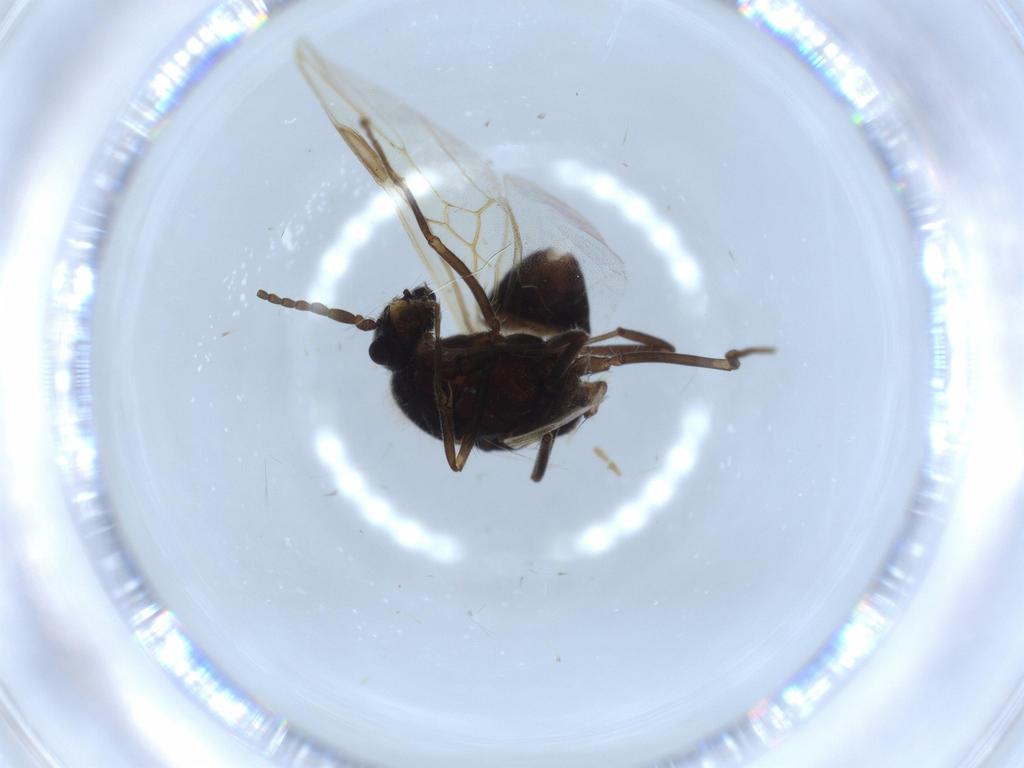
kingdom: Animalia
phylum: Arthropoda
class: Insecta
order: Hymenoptera
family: Formicidae
